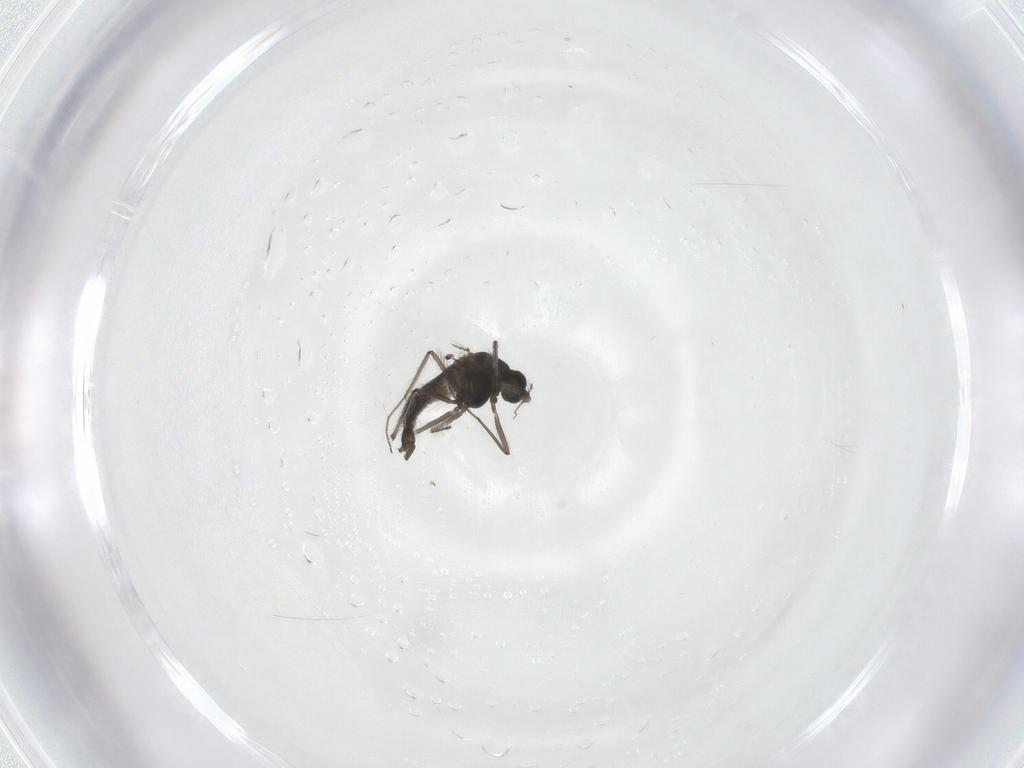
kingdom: Animalia
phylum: Arthropoda
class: Insecta
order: Diptera
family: Chironomidae
